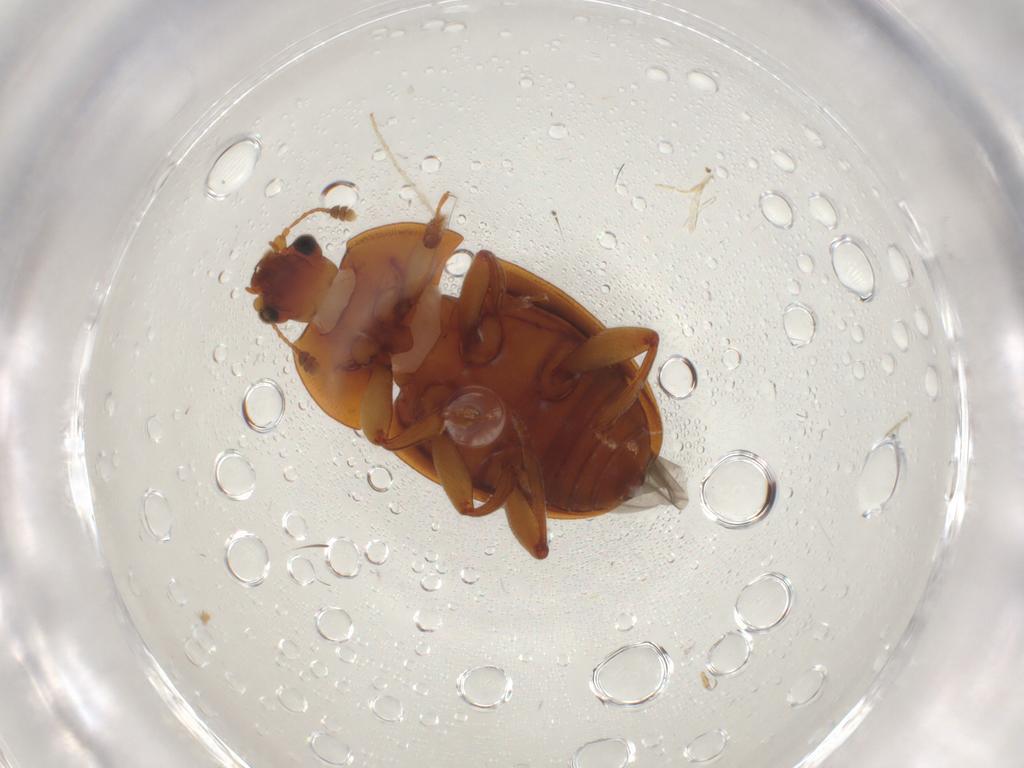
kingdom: Animalia
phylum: Arthropoda
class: Insecta
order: Coleoptera
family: Nitidulidae
